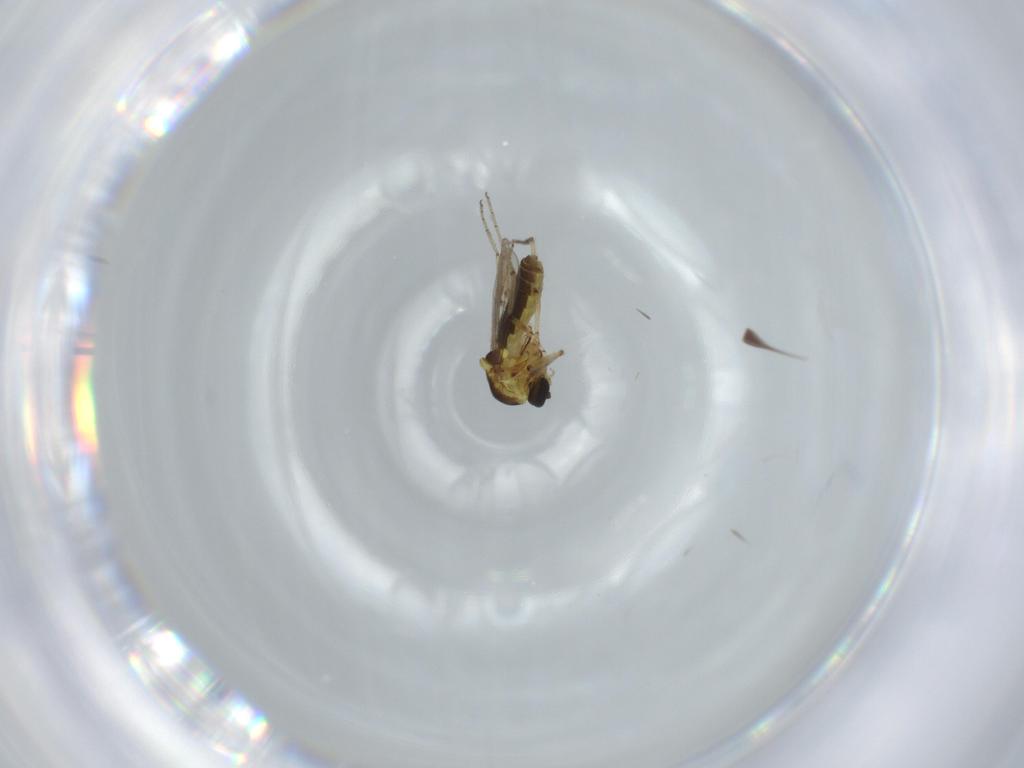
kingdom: Animalia
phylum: Arthropoda
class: Insecta
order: Diptera
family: Ceratopogonidae
